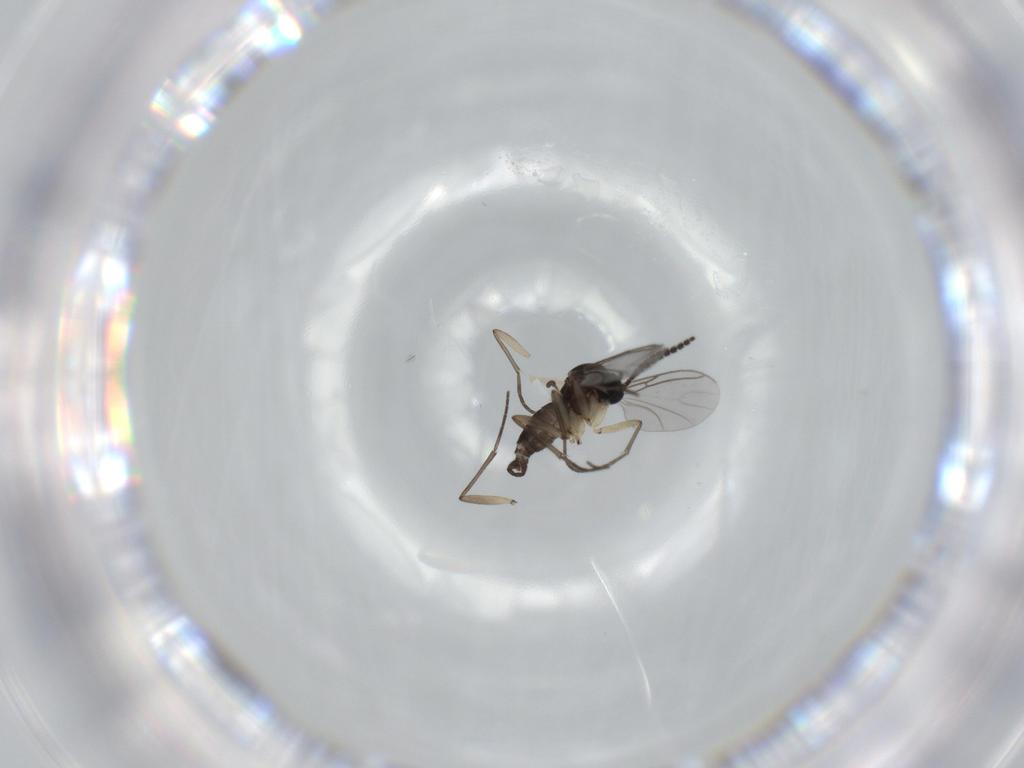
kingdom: Animalia
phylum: Arthropoda
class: Insecta
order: Diptera
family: Sciaridae
